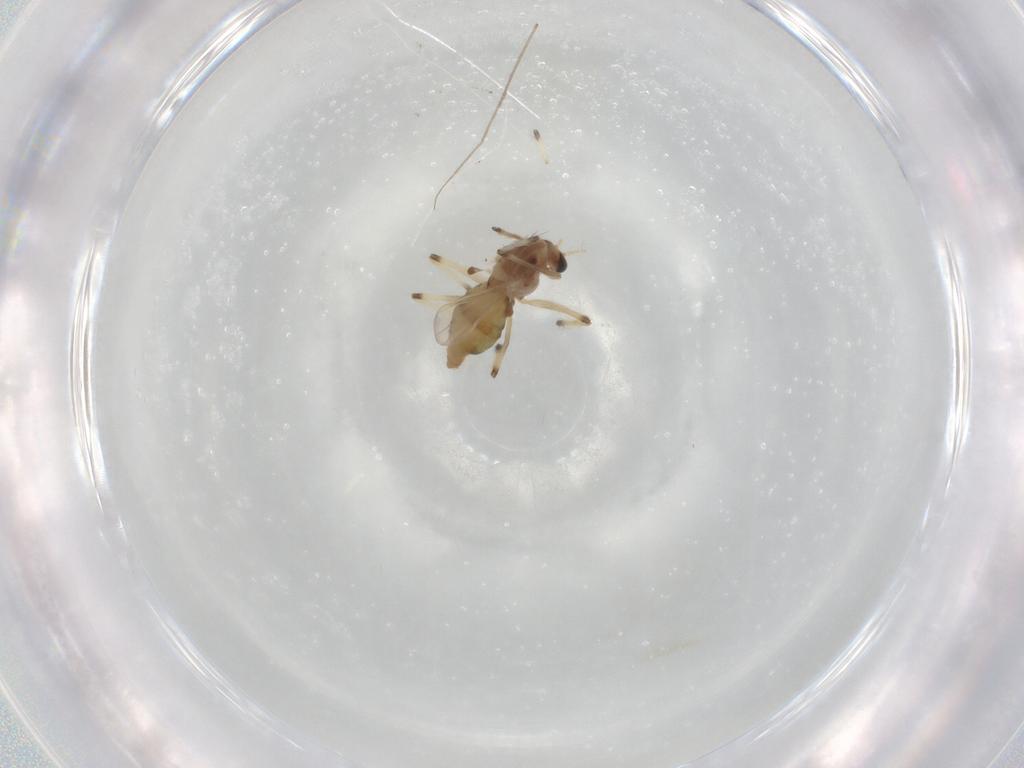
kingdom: Animalia
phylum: Arthropoda
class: Insecta
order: Diptera
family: Chironomidae
